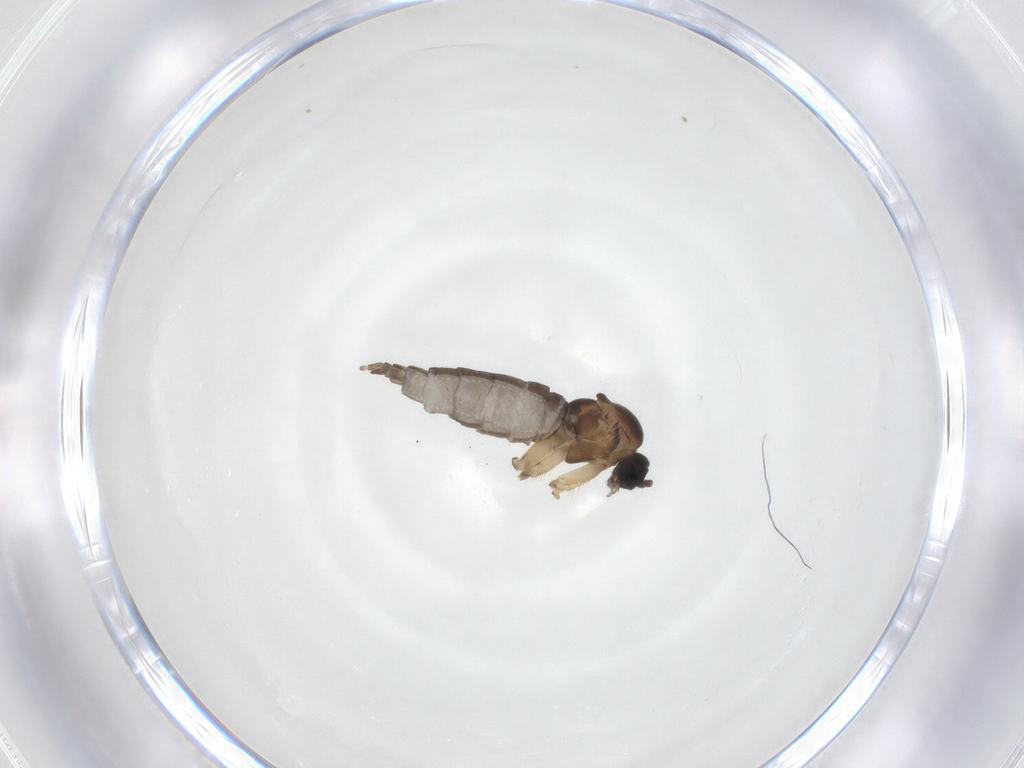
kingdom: Animalia
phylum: Arthropoda
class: Insecta
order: Diptera
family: Sciaridae
